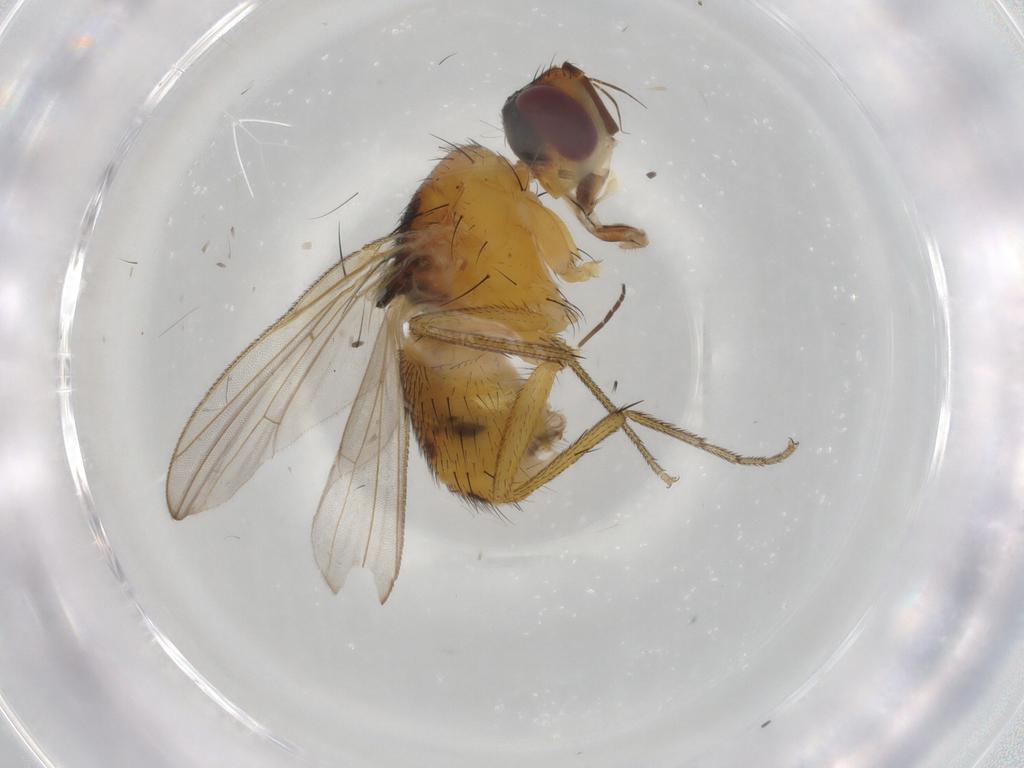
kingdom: Animalia
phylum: Arthropoda
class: Insecta
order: Diptera
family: Muscidae
